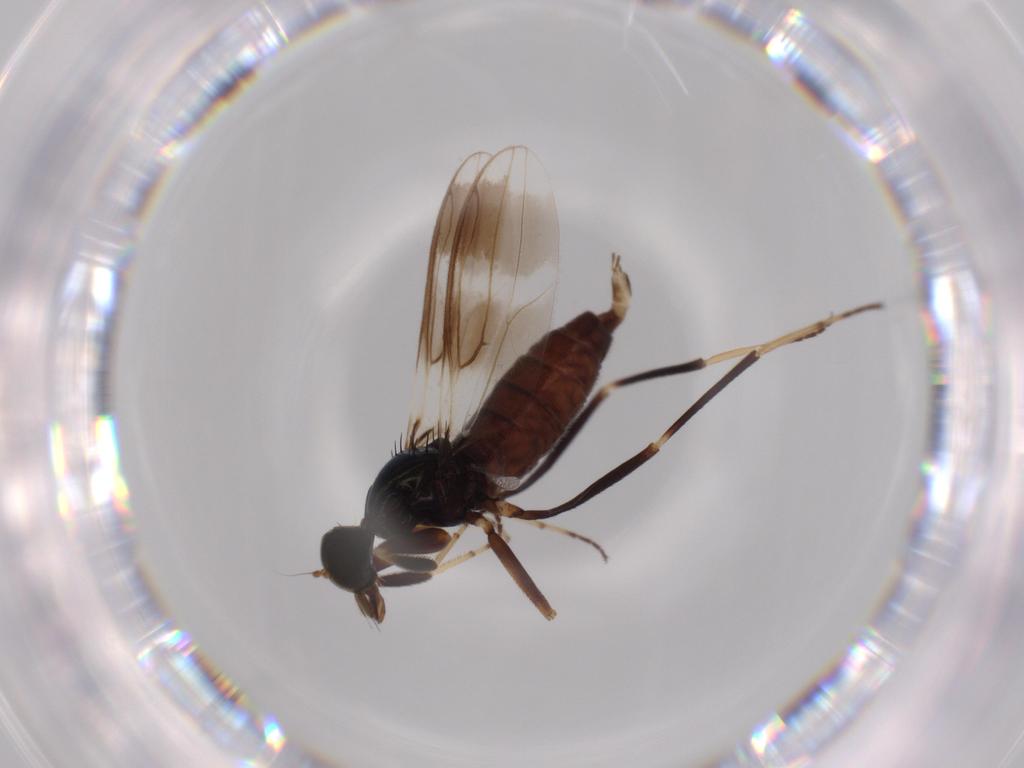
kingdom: Animalia
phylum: Arthropoda
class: Insecta
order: Diptera
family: Hybotidae
